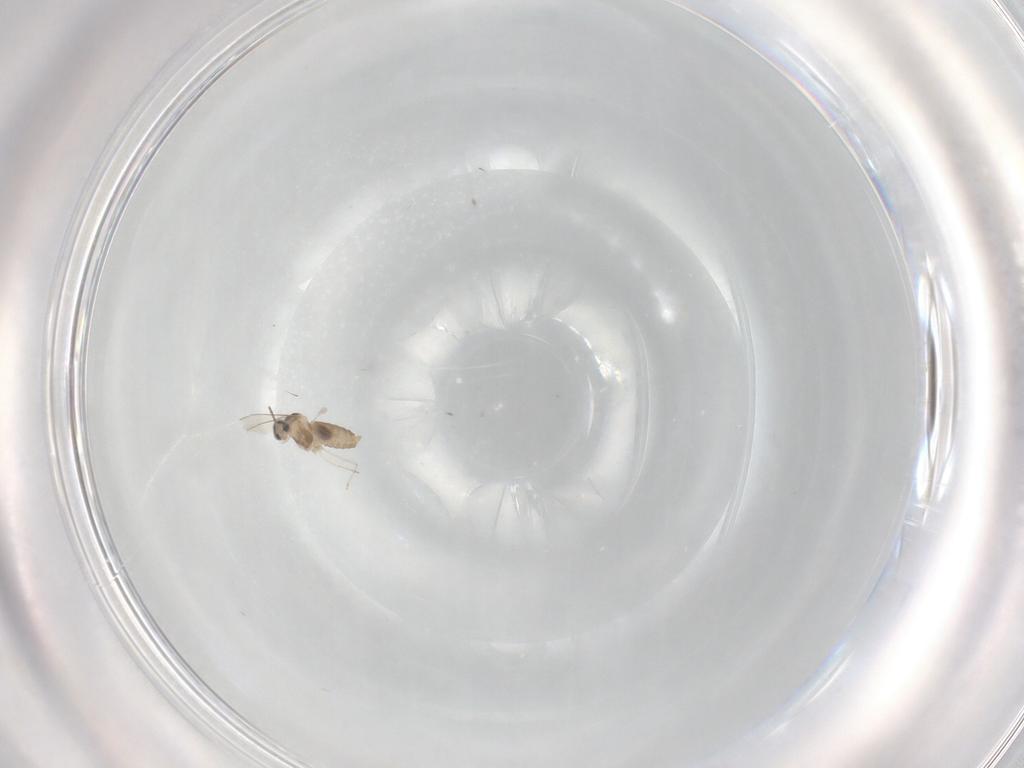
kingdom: Animalia
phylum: Arthropoda
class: Insecta
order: Diptera
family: Cecidomyiidae
